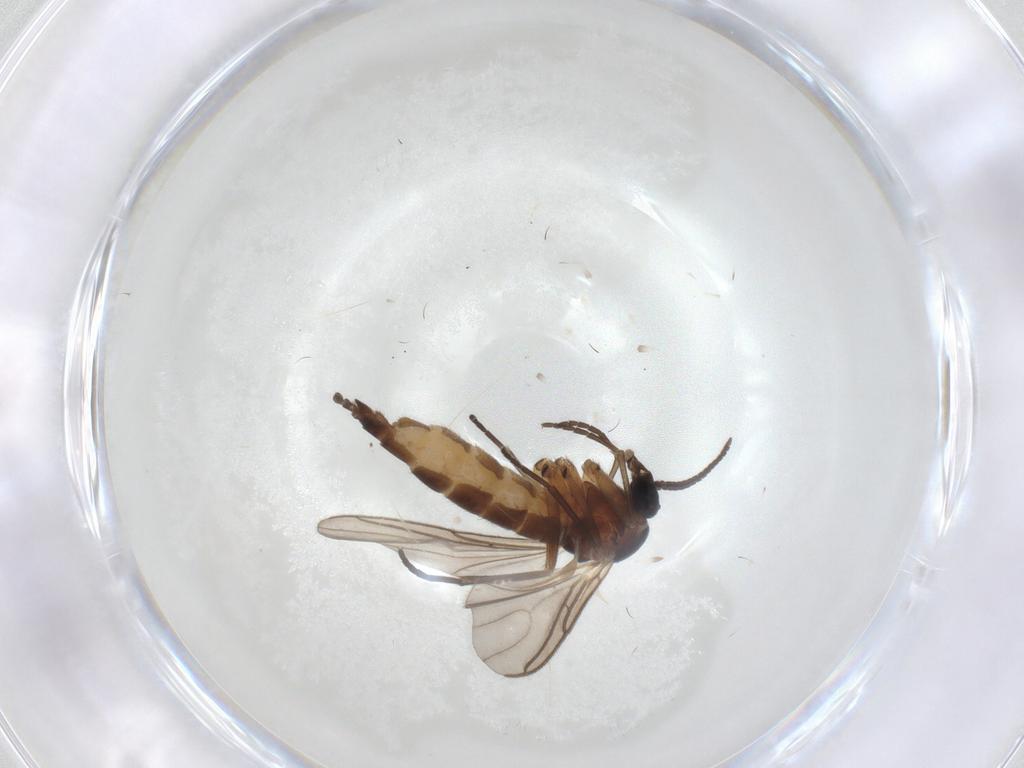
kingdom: Animalia
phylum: Arthropoda
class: Insecta
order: Diptera
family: Sciaridae
